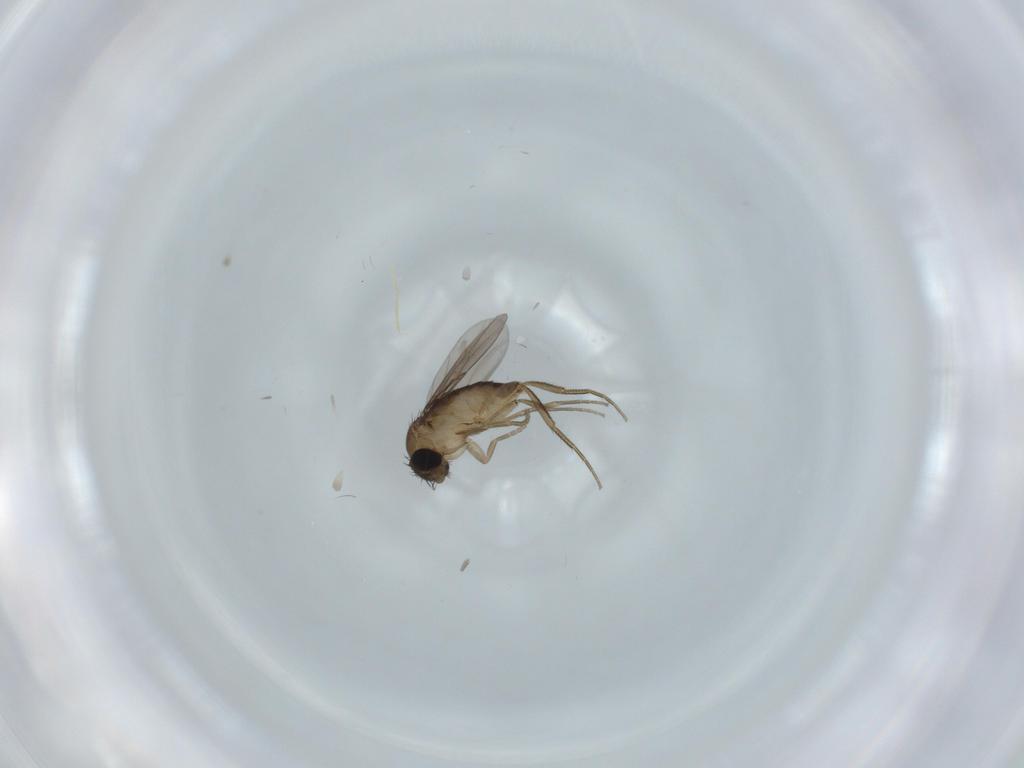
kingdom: Animalia
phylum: Arthropoda
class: Insecta
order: Diptera
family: Phoridae
